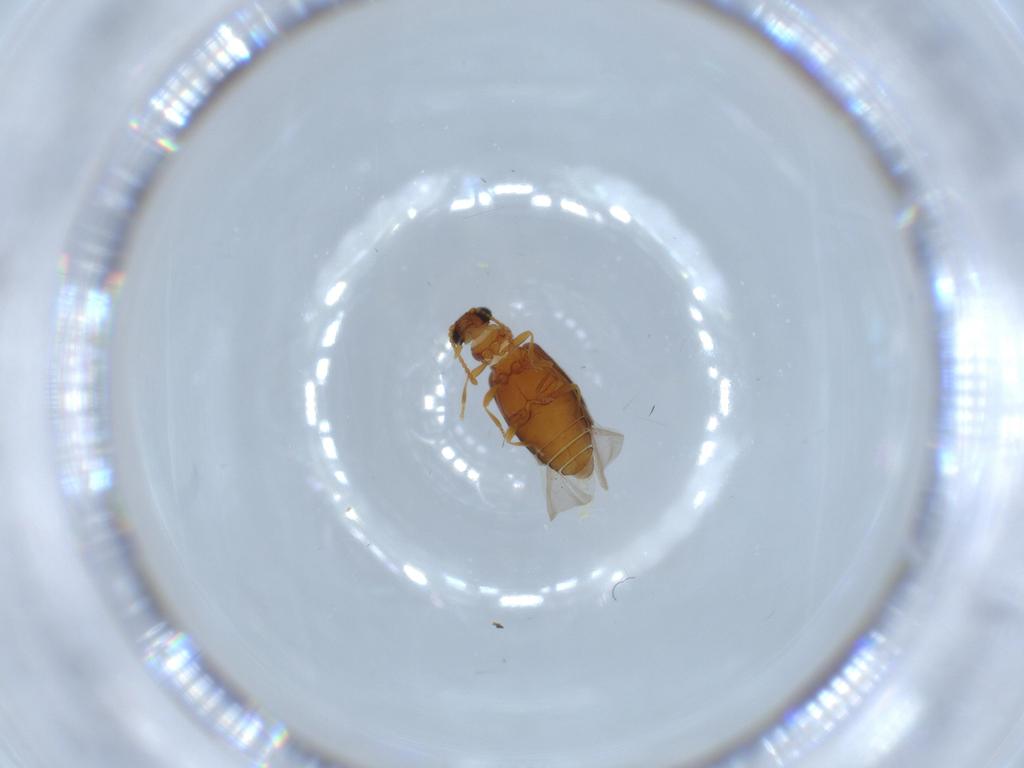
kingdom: Animalia
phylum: Arthropoda
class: Insecta
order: Coleoptera
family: Aderidae
